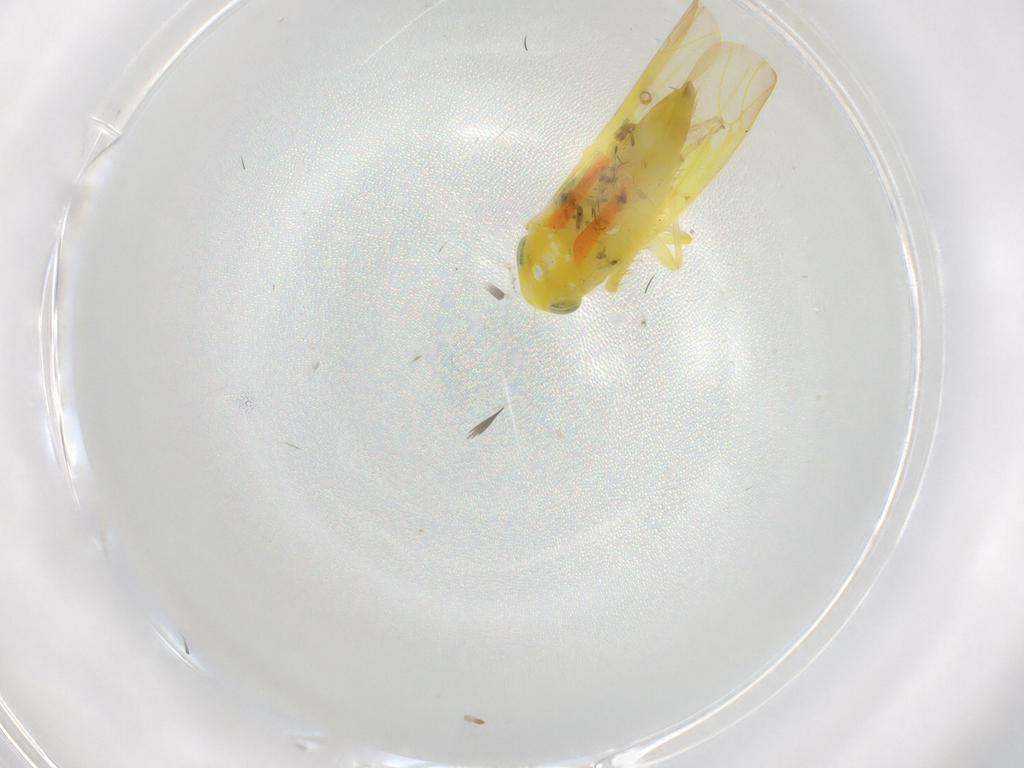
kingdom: Animalia
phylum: Arthropoda
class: Insecta
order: Hemiptera
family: Cicadellidae
